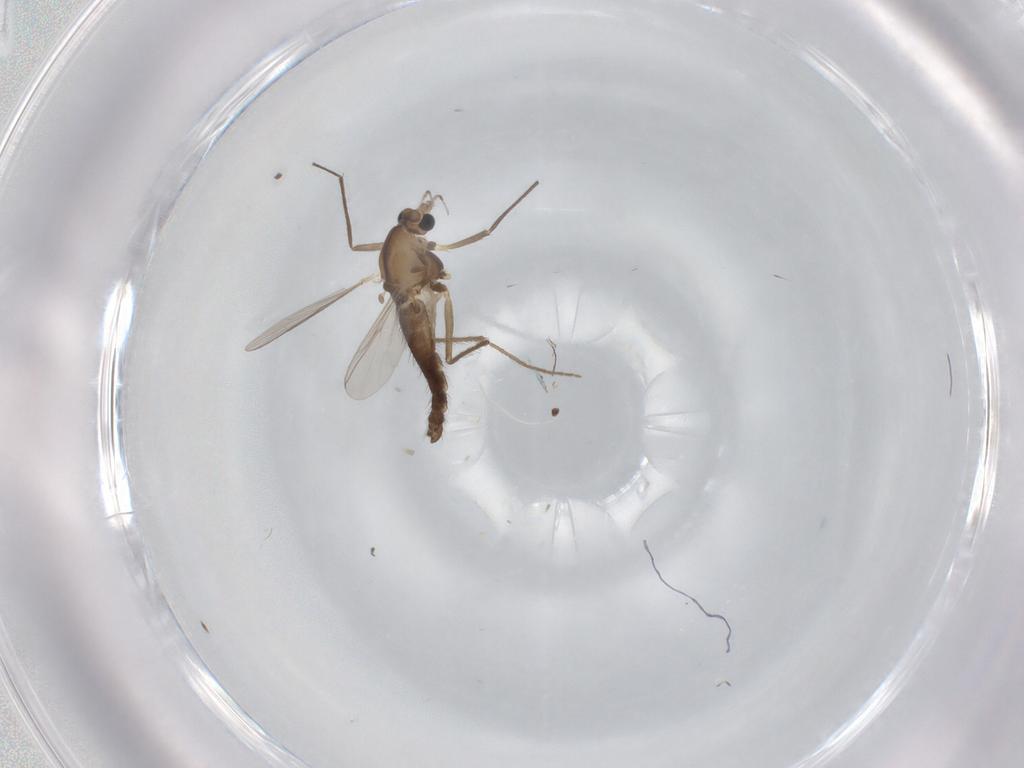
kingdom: Animalia
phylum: Arthropoda
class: Insecta
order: Diptera
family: Chironomidae
